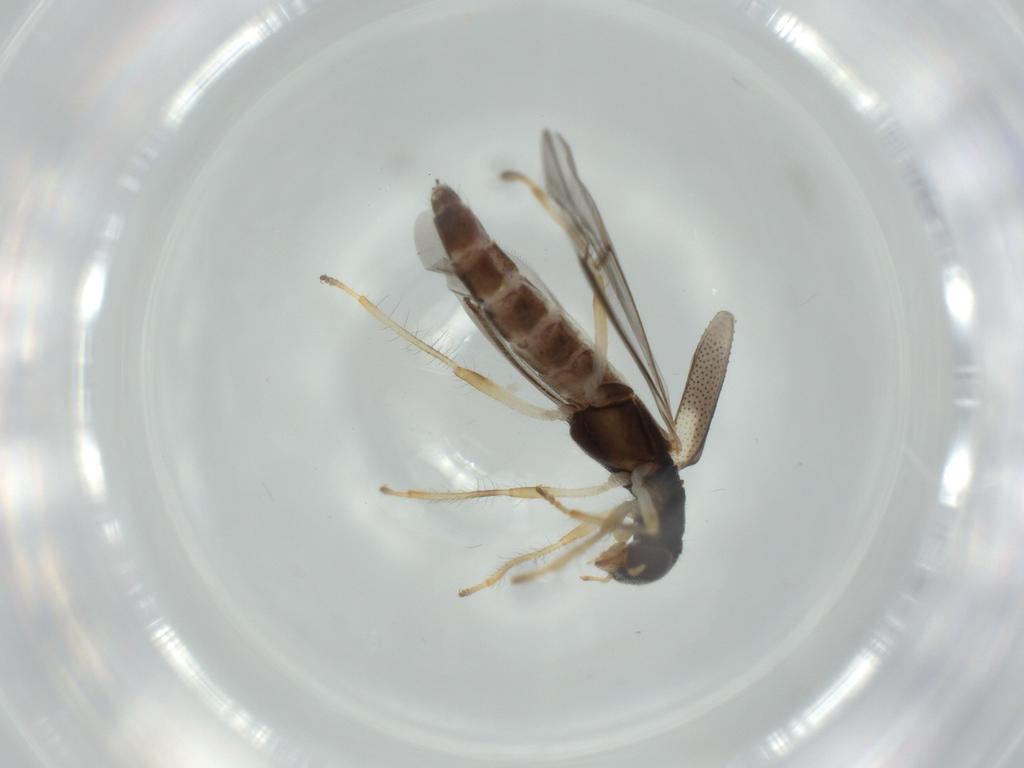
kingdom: Animalia
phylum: Arthropoda
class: Insecta
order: Coleoptera
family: Cleridae
